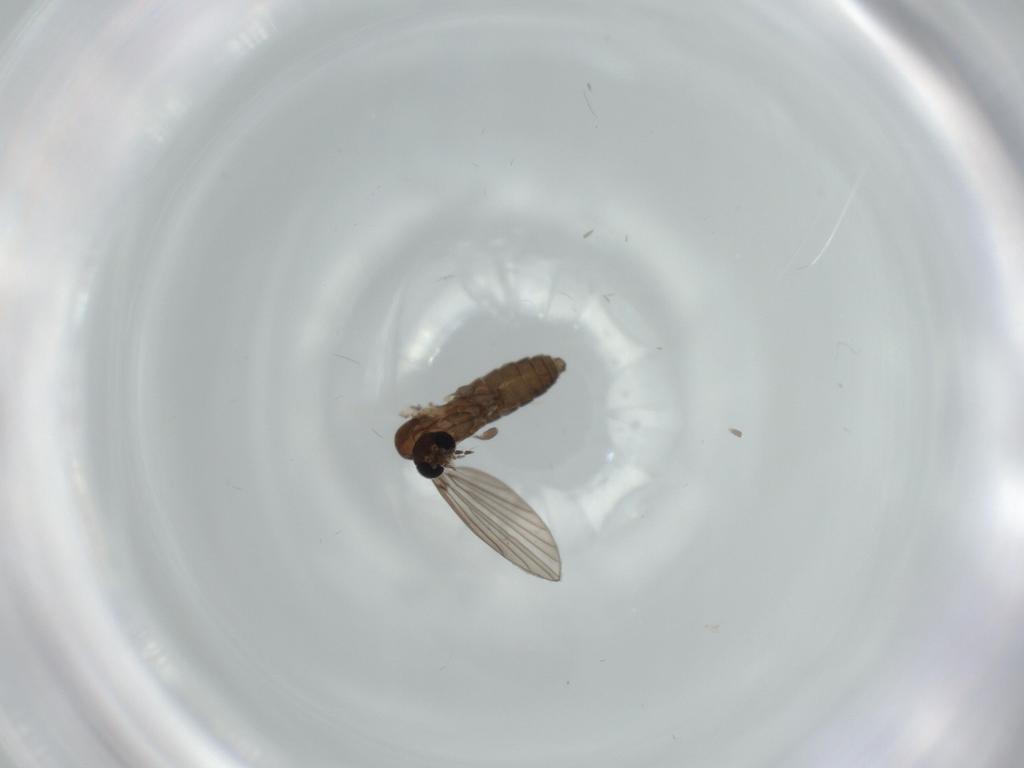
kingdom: Animalia
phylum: Arthropoda
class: Insecta
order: Diptera
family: Psychodidae
